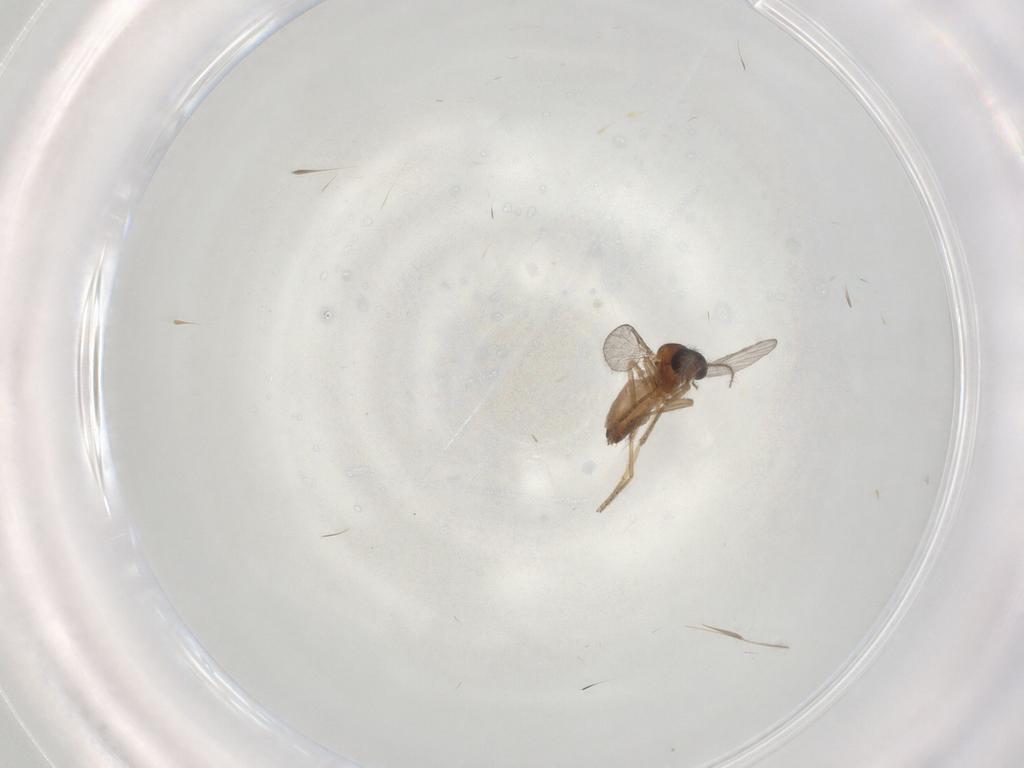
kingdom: Animalia
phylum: Arthropoda
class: Insecta
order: Diptera
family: Ceratopogonidae
